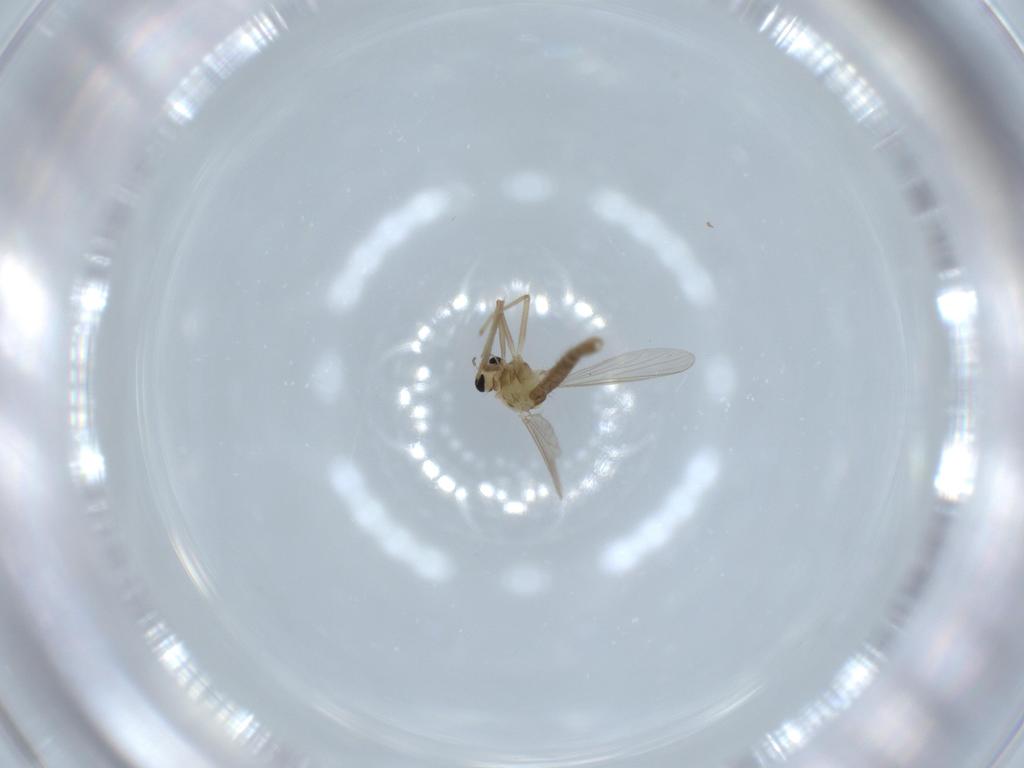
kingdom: Animalia
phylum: Arthropoda
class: Insecta
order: Diptera
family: Chironomidae
